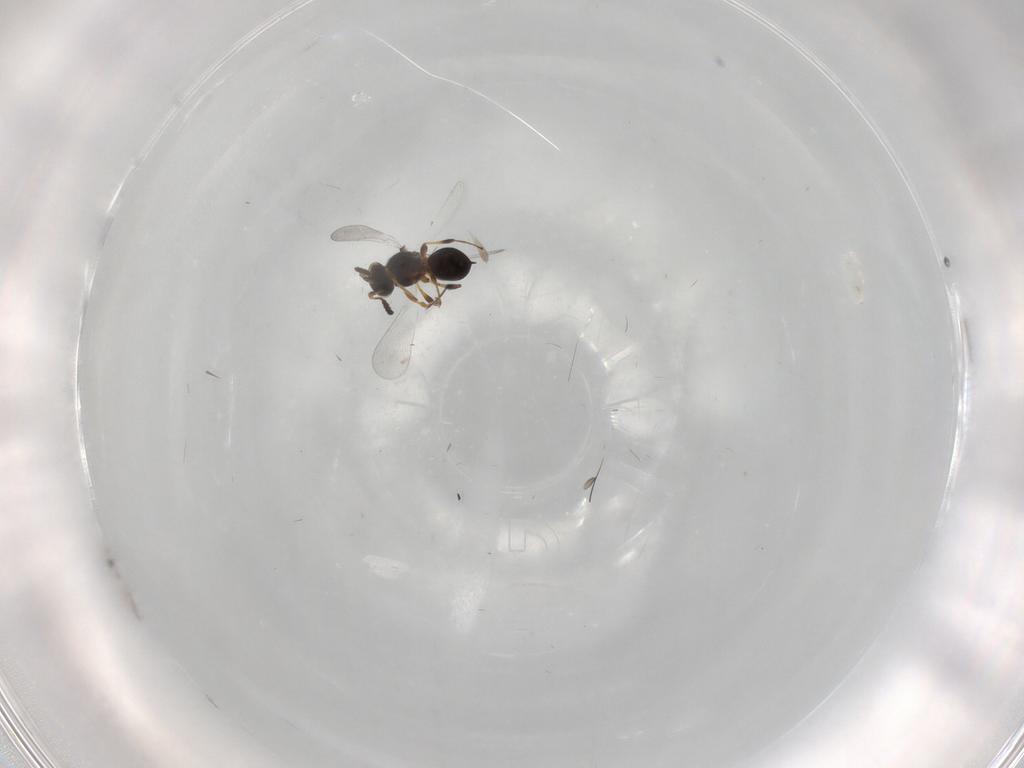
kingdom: Animalia
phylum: Arthropoda
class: Insecta
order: Hymenoptera
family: Platygastridae
